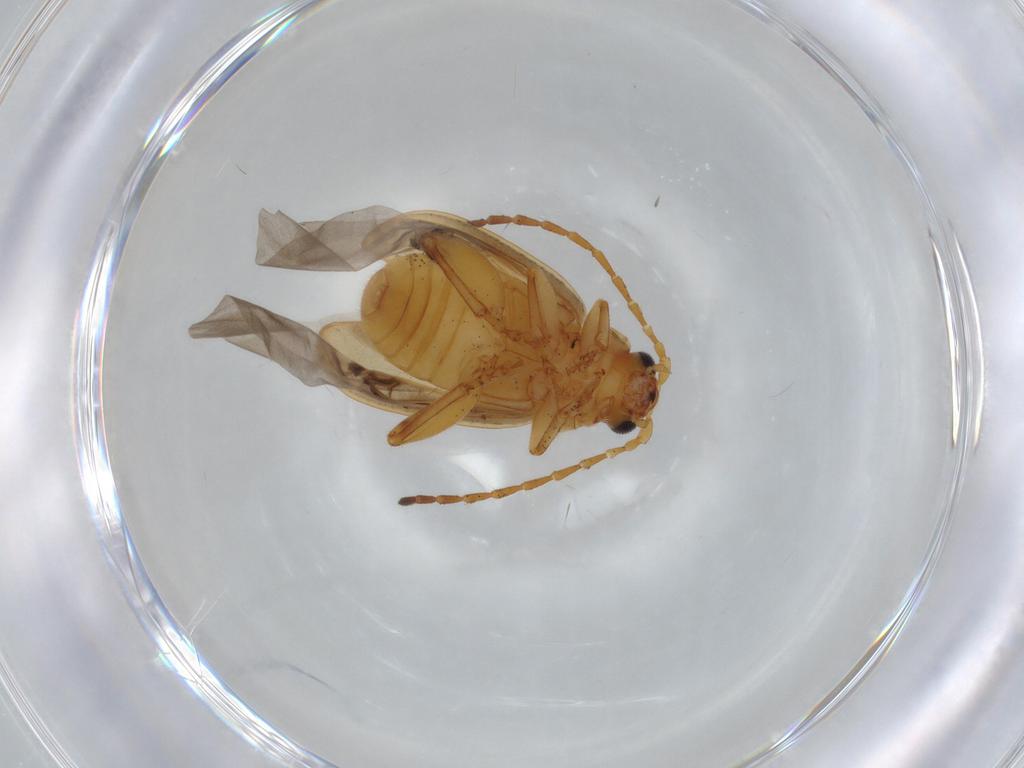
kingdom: Animalia
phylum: Arthropoda
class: Insecta
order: Coleoptera
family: Chrysomelidae
